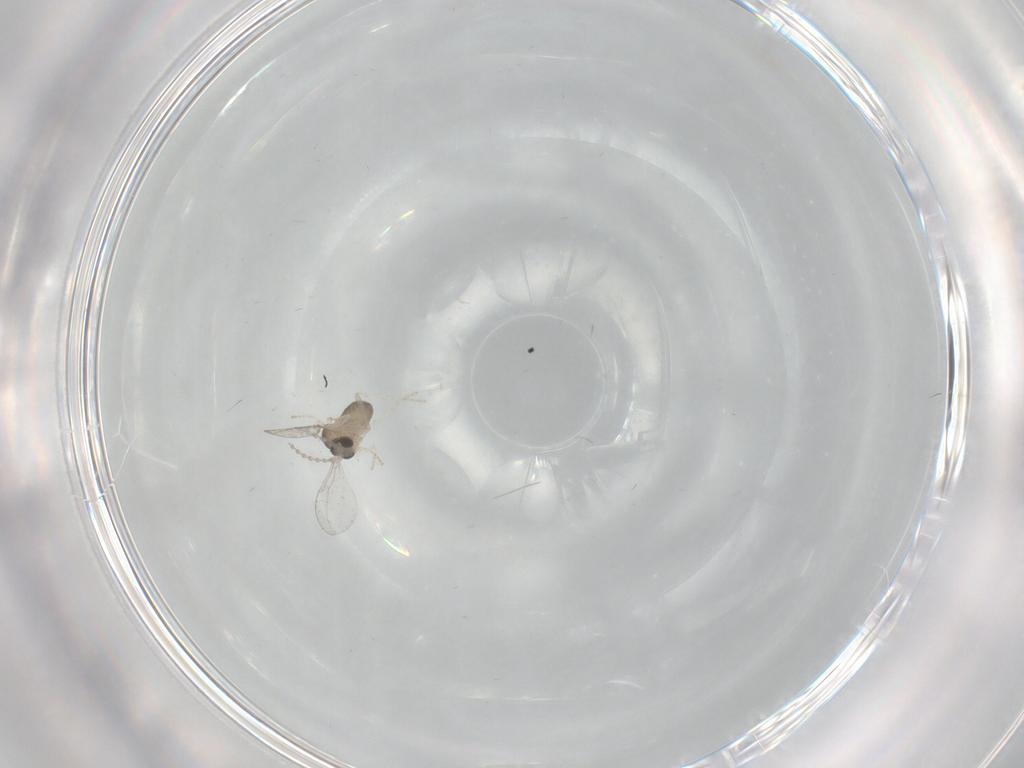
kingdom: Animalia
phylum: Arthropoda
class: Insecta
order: Diptera
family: Cecidomyiidae
